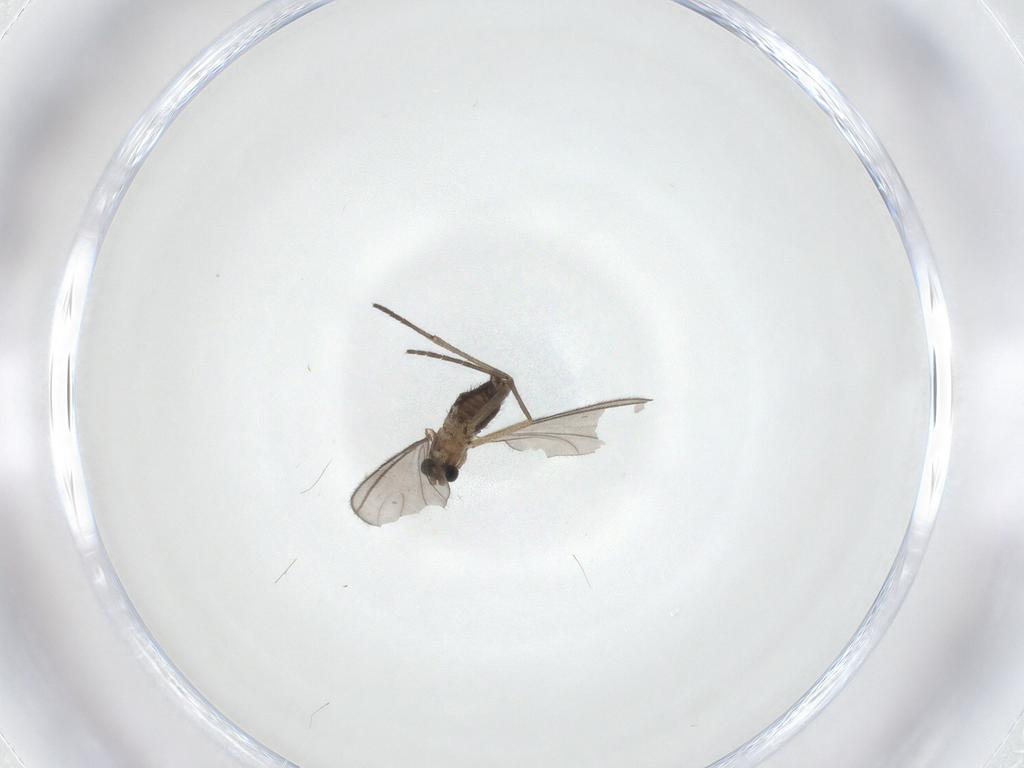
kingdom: Animalia
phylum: Arthropoda
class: Insecta
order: Diptera
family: Sciaridae
